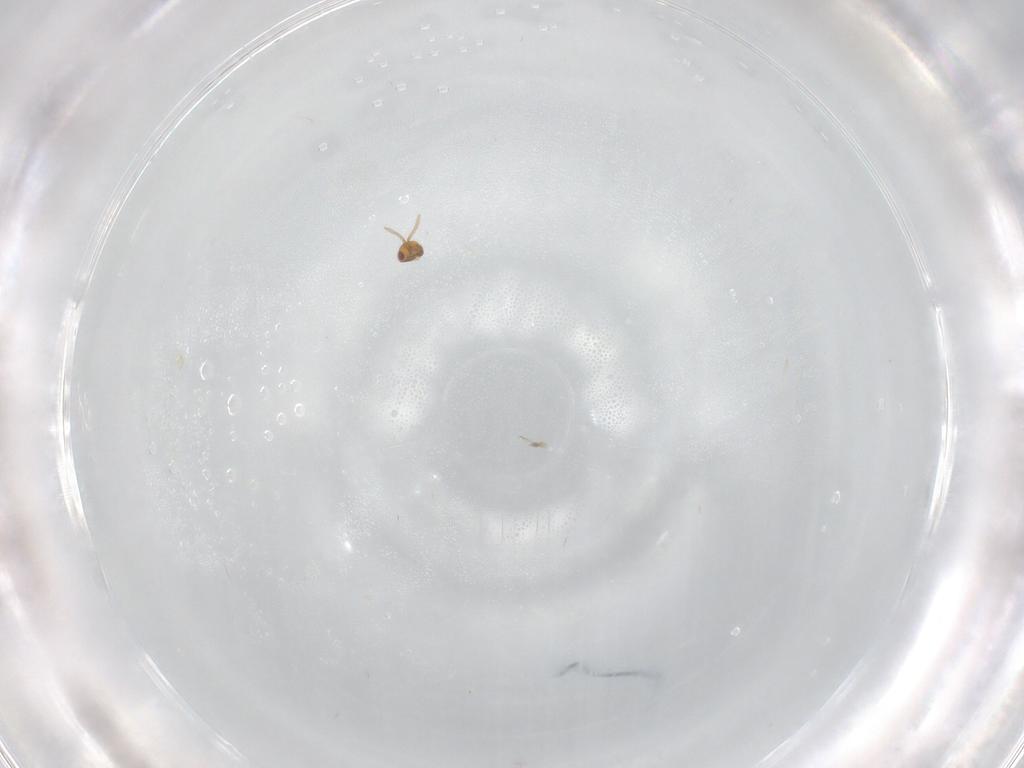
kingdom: Animalia
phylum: Arthropoda
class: Insecta
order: Hymenoptera
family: Aphelinidae
